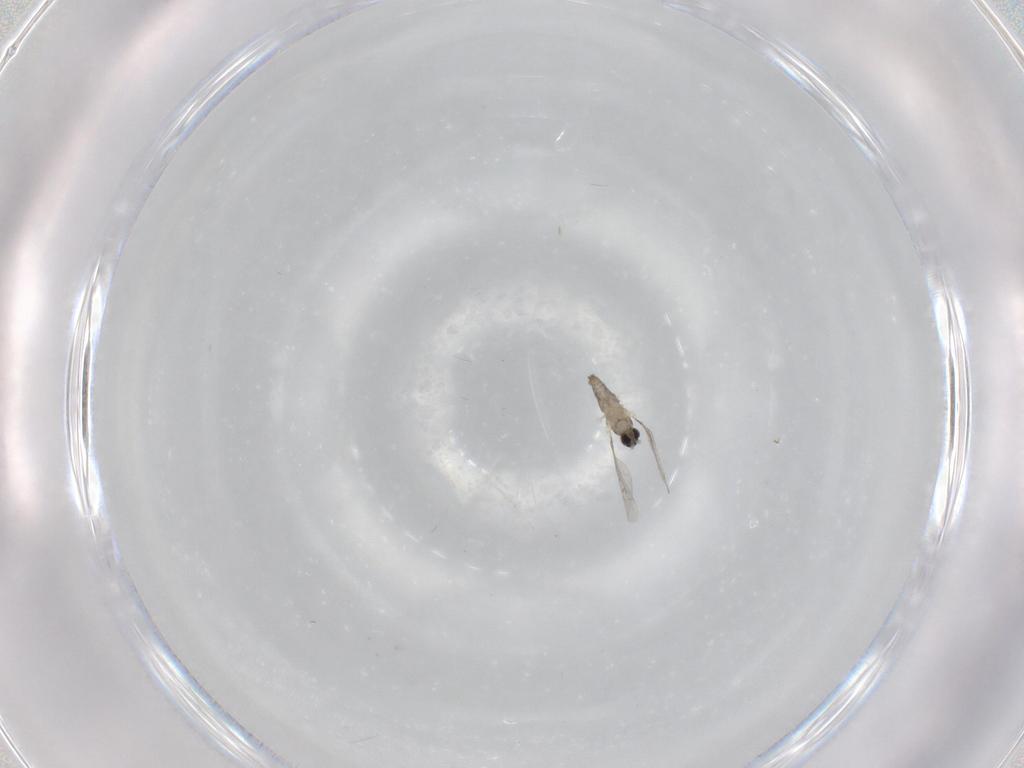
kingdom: Animalia
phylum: Arthropoda
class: Insecta
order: Diptera
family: Cecidomyiidae
